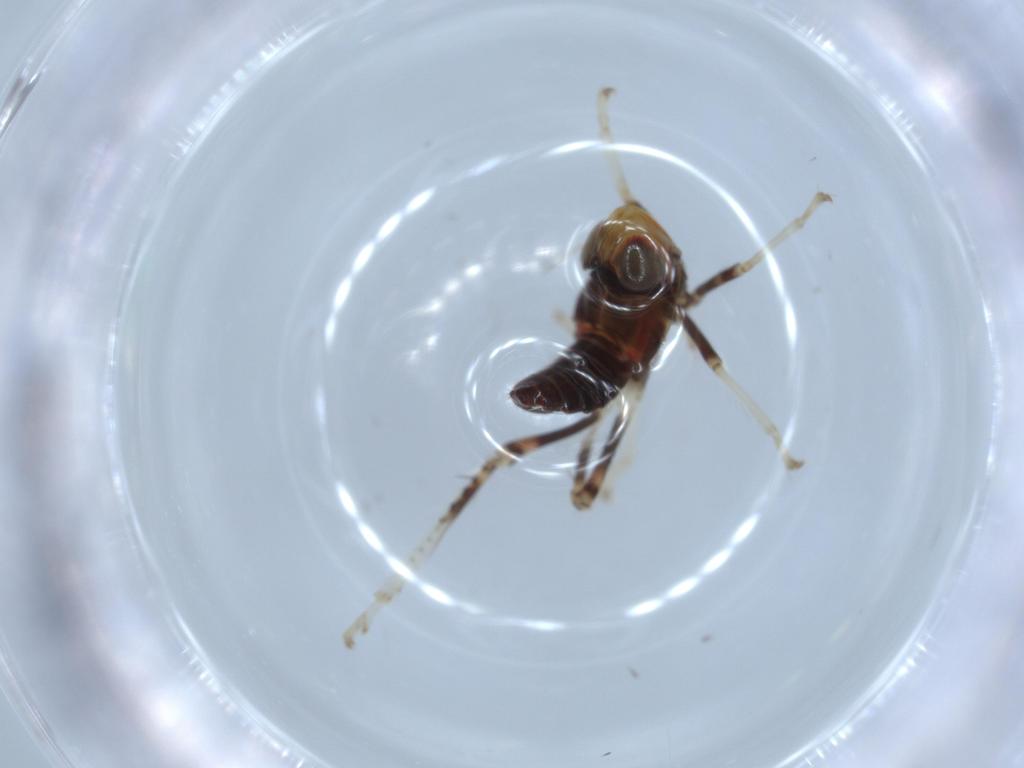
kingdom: Animalia
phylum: Arthropoda
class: Insecta
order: Hemiptera
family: Cicadellidae
